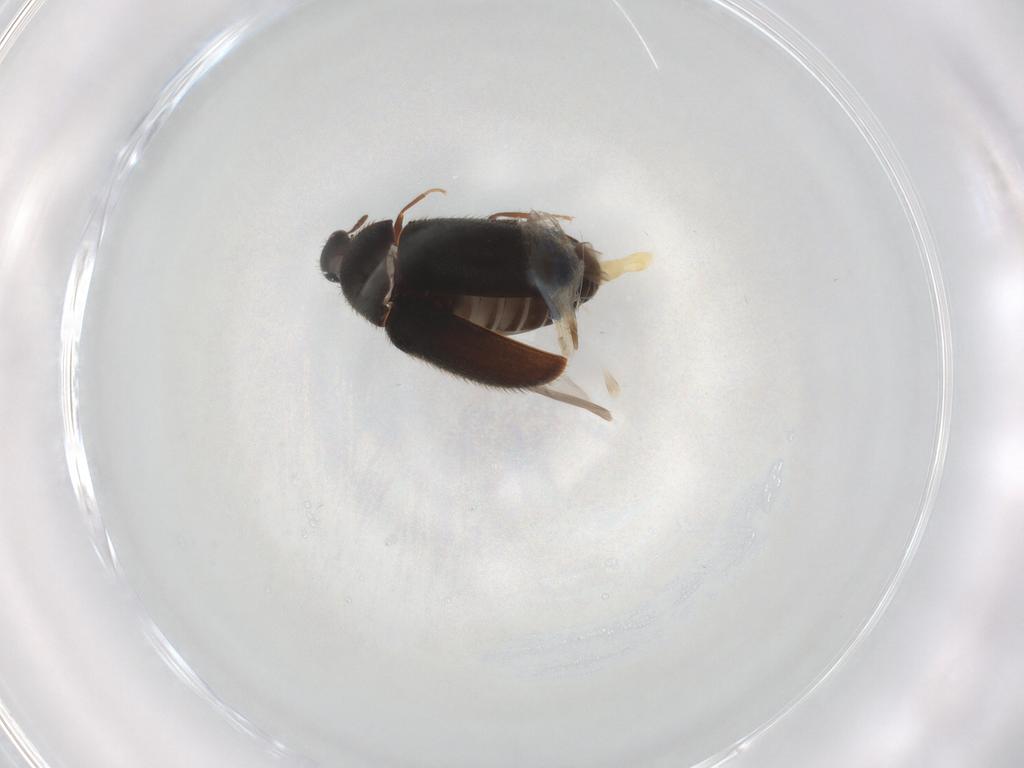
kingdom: Animalia
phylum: Arthropoda
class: Insecta
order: Coleoptera
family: Dermestidae
